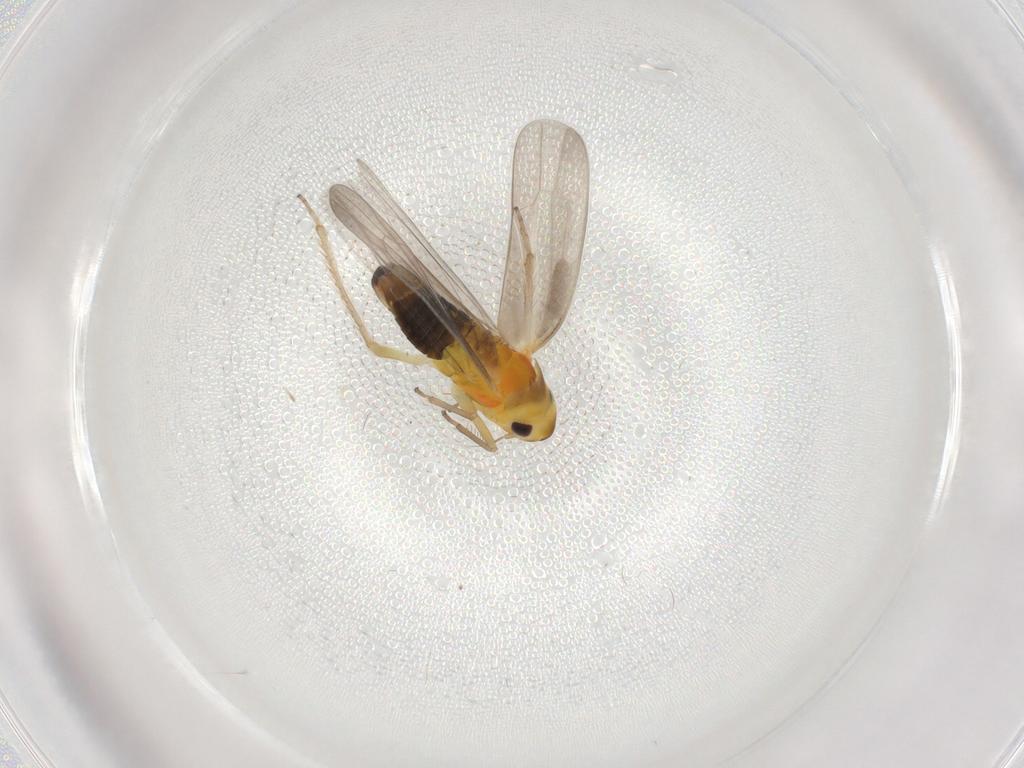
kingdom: Animalia
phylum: Arthropoda
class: Insecta
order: Hemiptera
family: Cicadellidae
